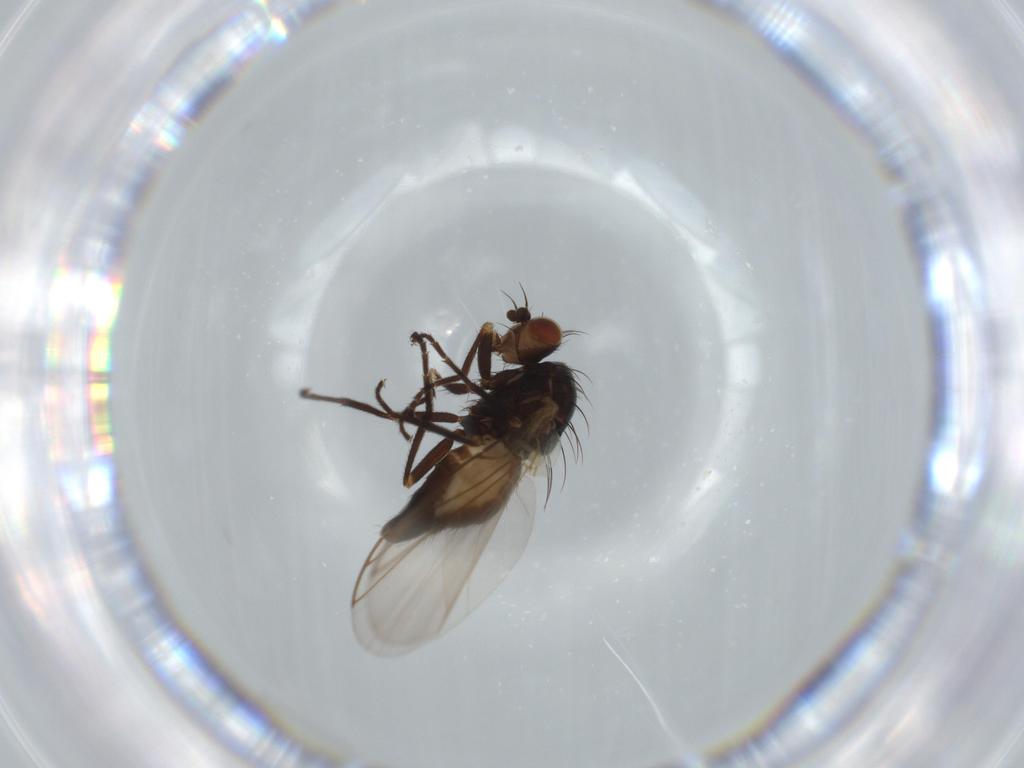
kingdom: Animalia
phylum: Arthropoda
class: Insecta
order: Diptera
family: Agromyzidae
